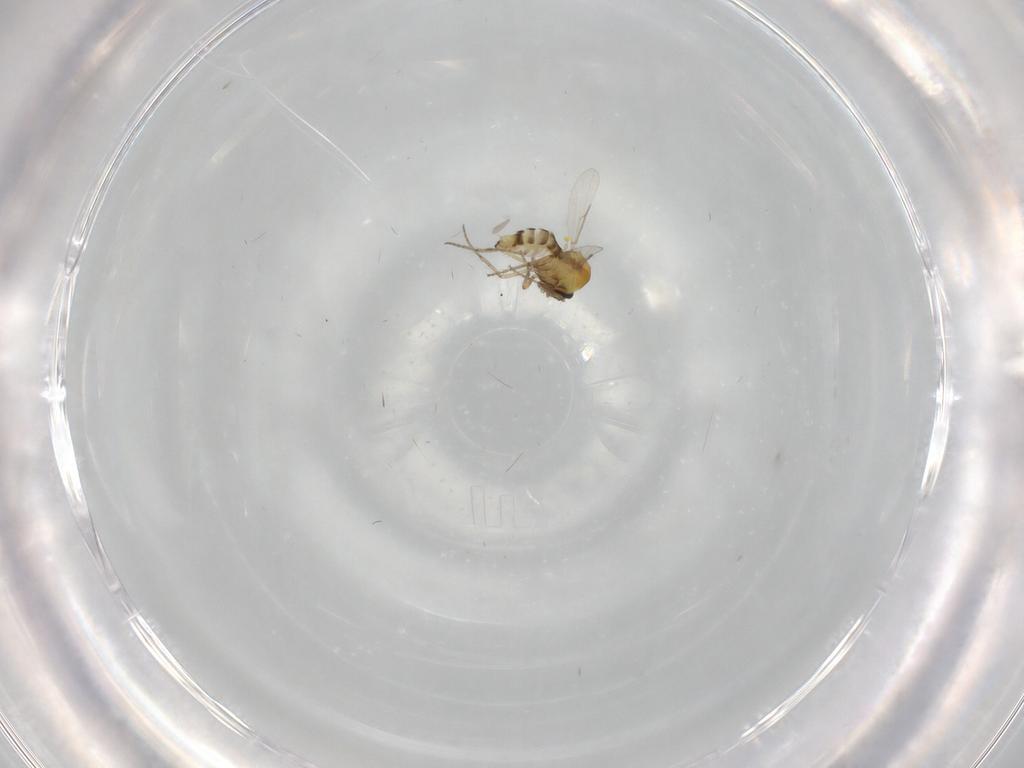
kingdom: Animalia
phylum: Arthropoda
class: Insecta
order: Diptera
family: Ceratopogonidae
